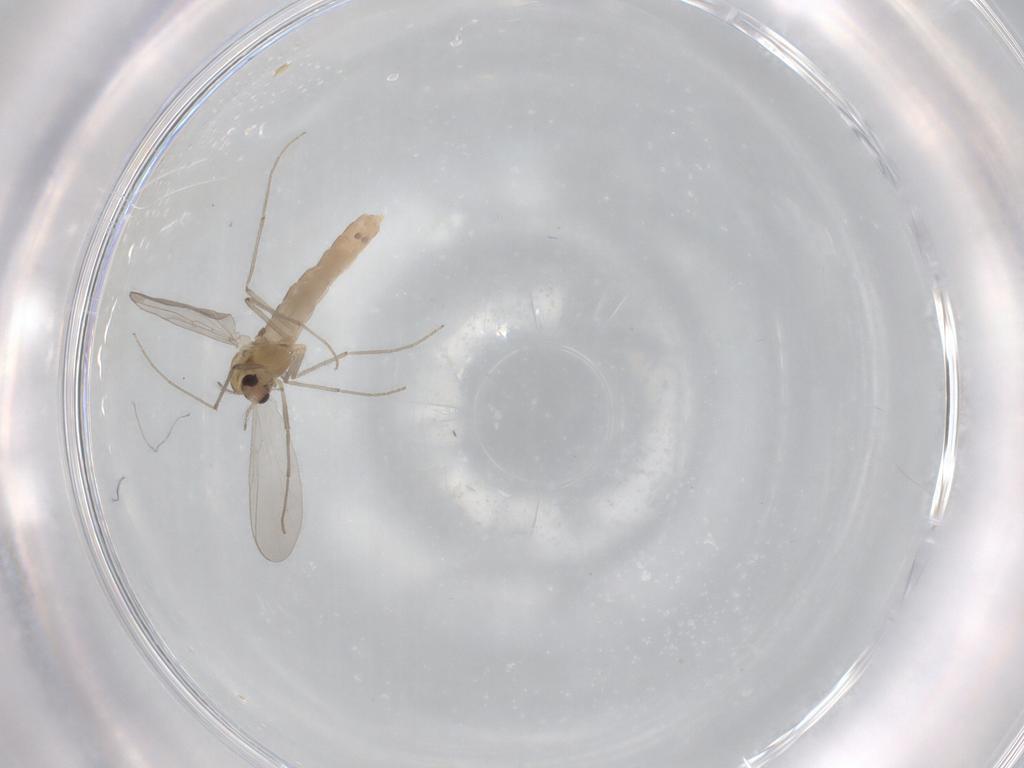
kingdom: Animalia
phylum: Arthropoda
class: Insecta
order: Diptera
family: Chironomidae
